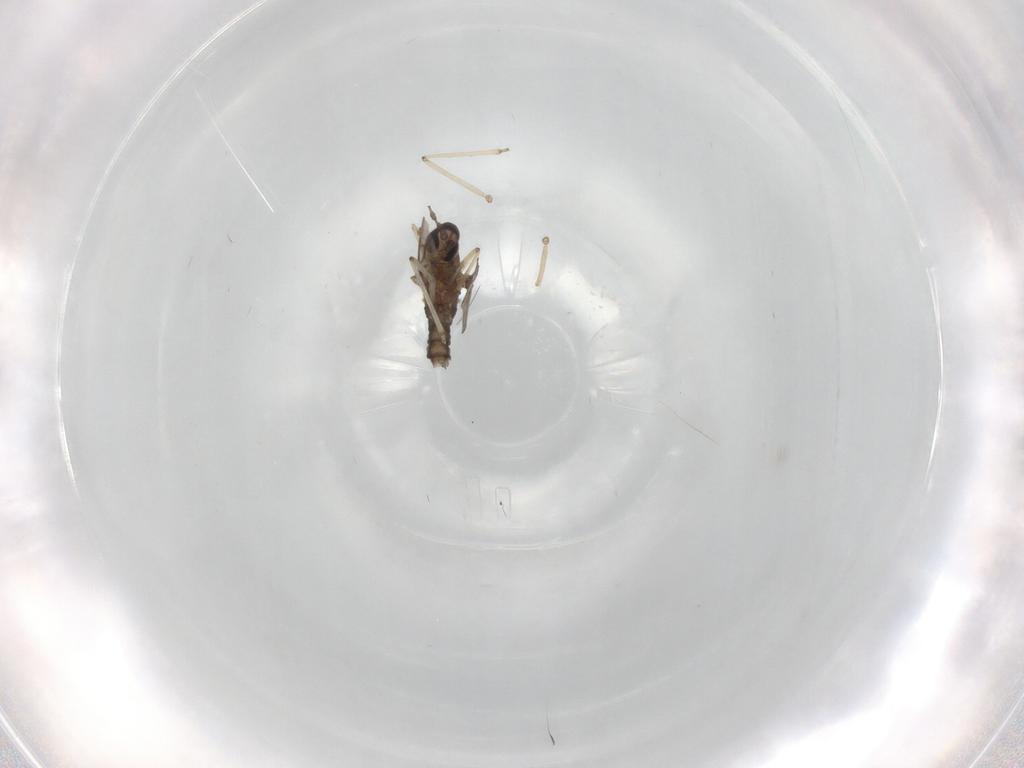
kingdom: Animalia
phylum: Arthropoda
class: Insecta
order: Diptera
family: Cecidomyiidae
